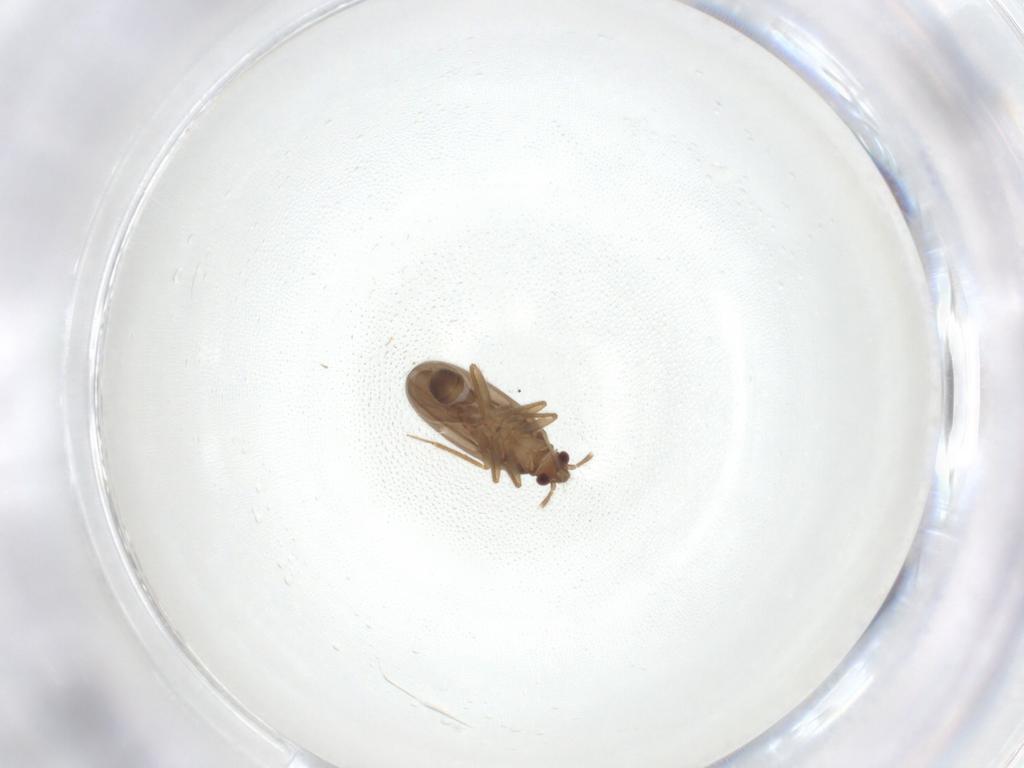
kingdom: Animalia
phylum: Arthropoda
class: Insecta
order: Hemiptera
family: Ceratocombidae
